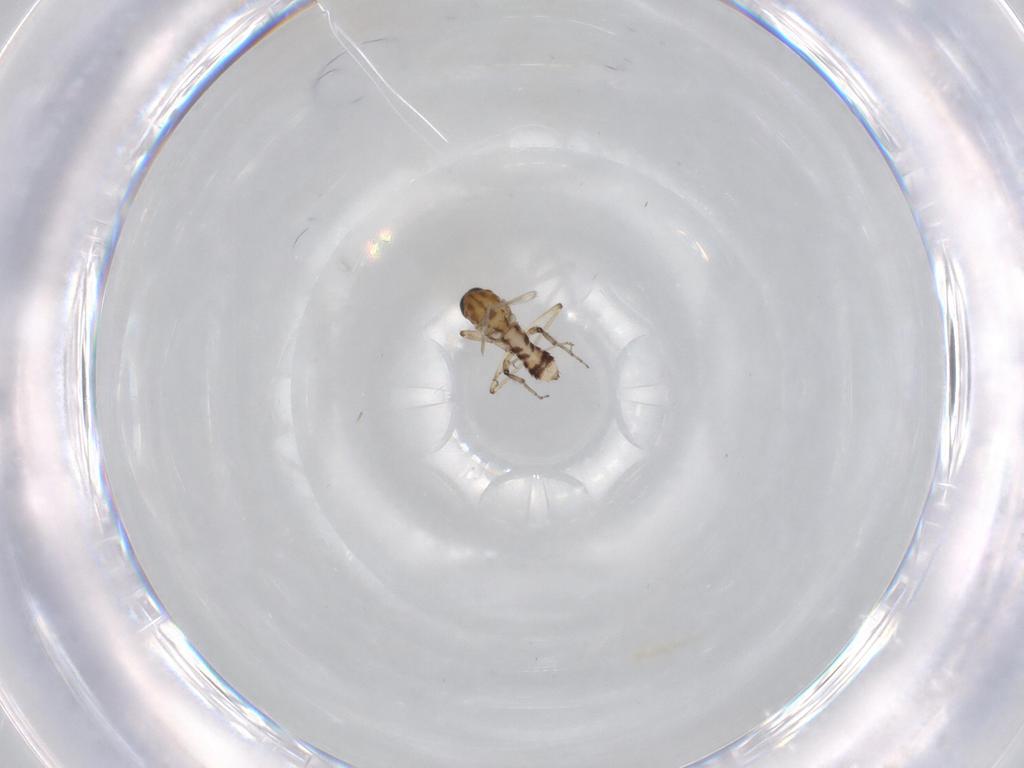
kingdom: Animalia
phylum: Arthropoda
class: Insecta
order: Diptera
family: Ceratopogonidae
